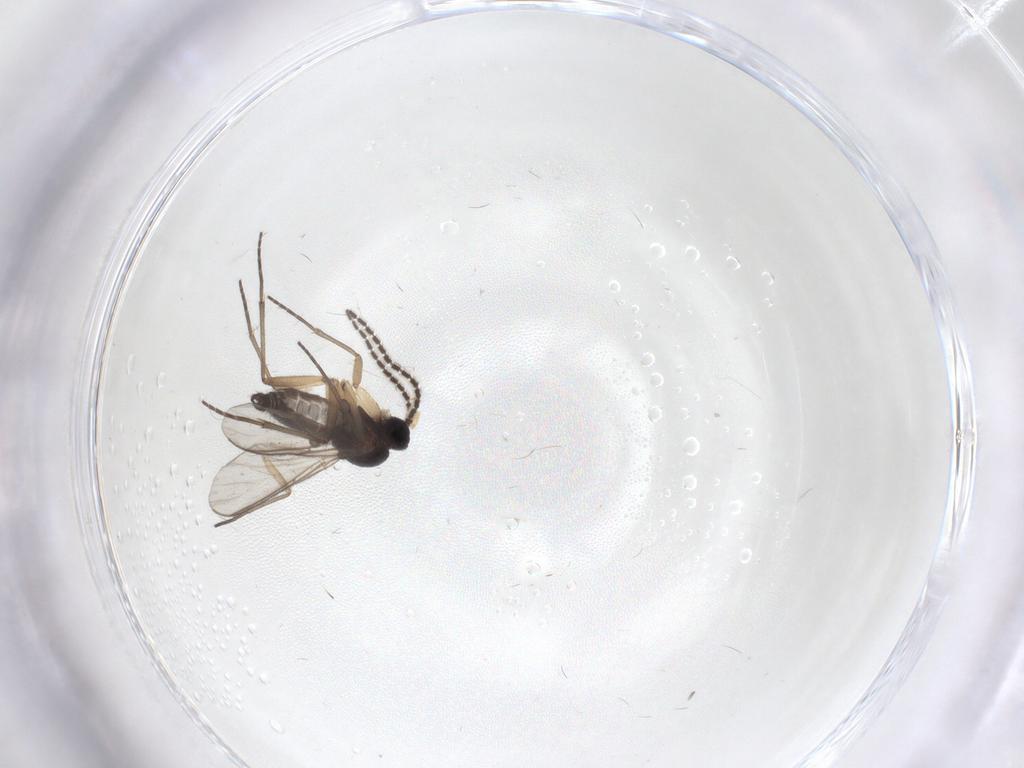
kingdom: Animalia
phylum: Arthropoda
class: Insecta
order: Diptera
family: Sciaridae
